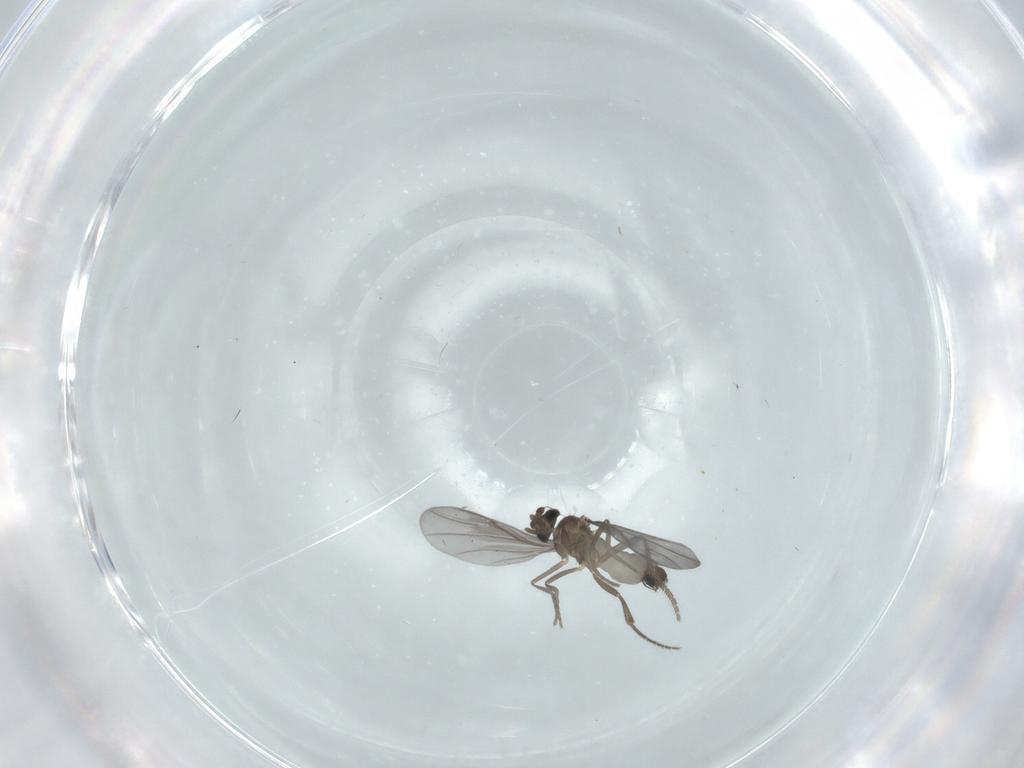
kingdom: Animalia
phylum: Arthropoda
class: Insecta
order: Diptera
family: Phoridae
